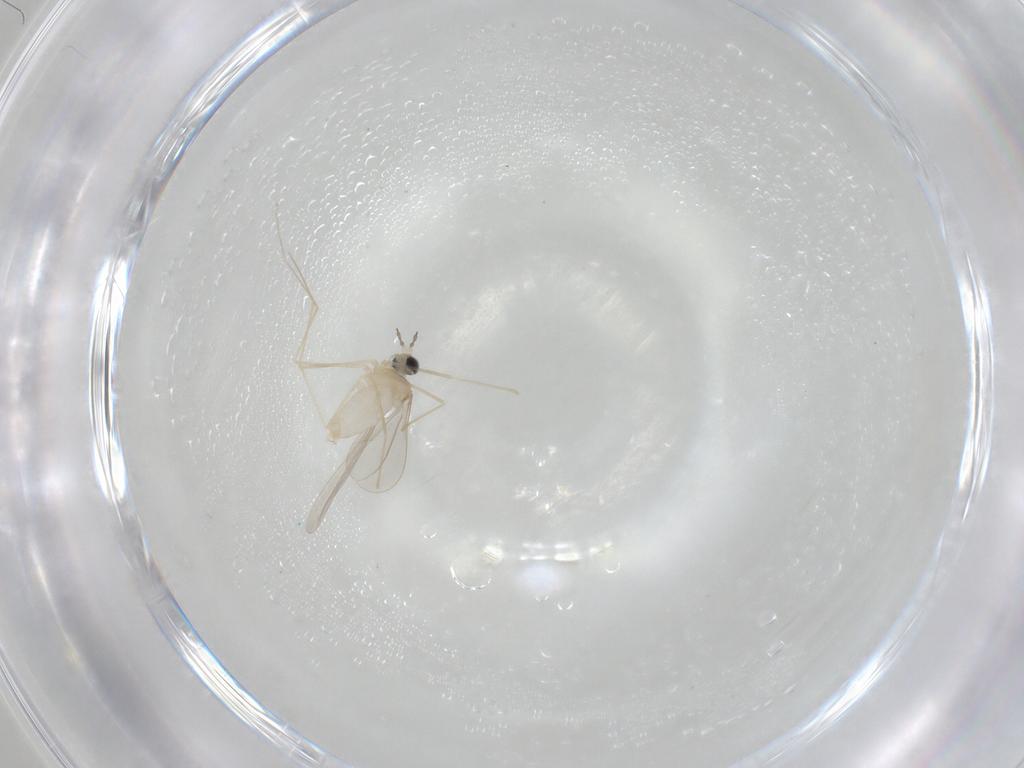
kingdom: Animalia
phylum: Arthropoda
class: Insecta
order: Diptera
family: Cecidomyiidae
